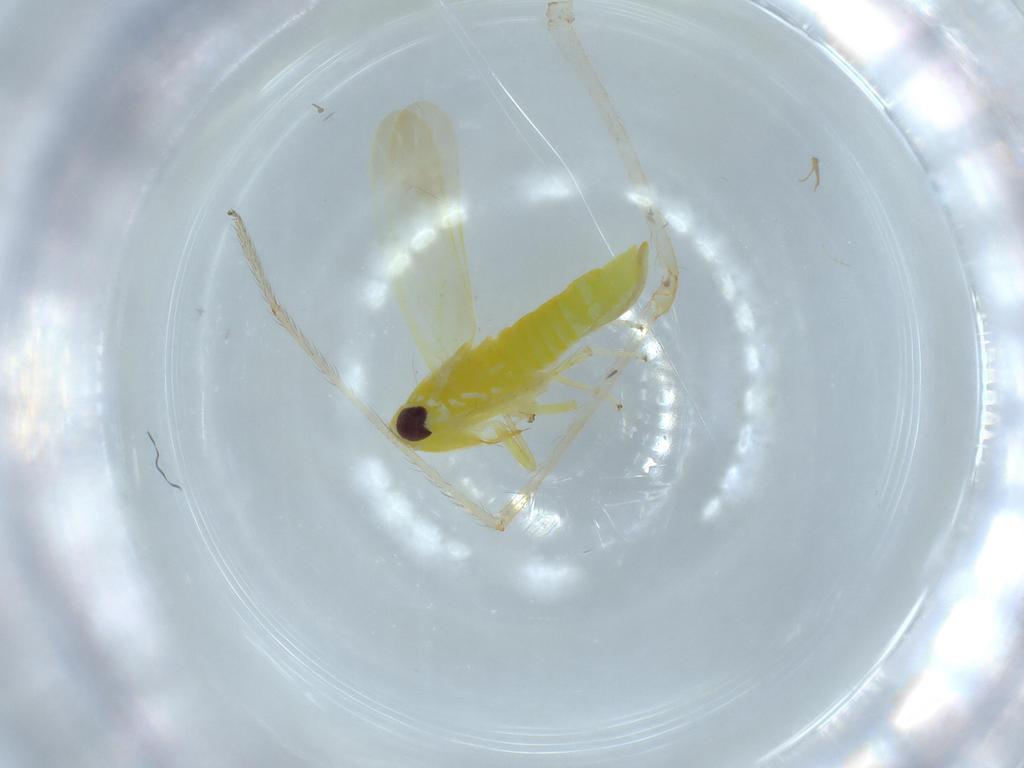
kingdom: Animalia
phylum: Arthropoda
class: Insecta
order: Hemiptera
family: Cicadellidae
